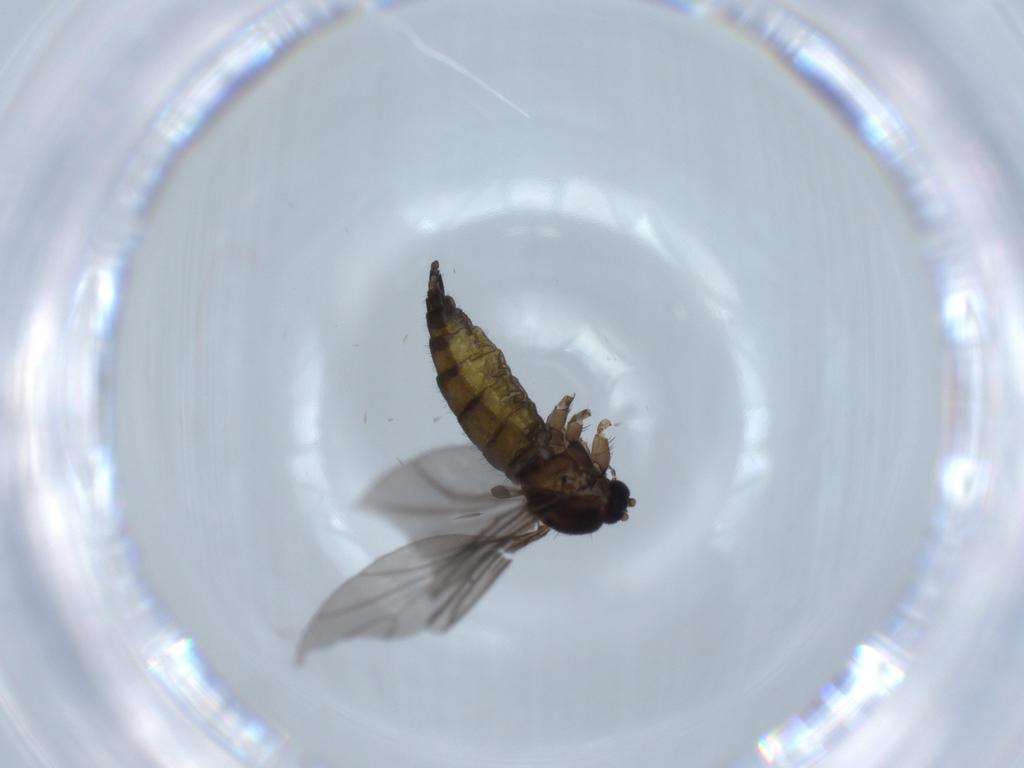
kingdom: Animalia
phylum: Arthropoda
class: Insecta
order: Diptera
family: Sciaridae
